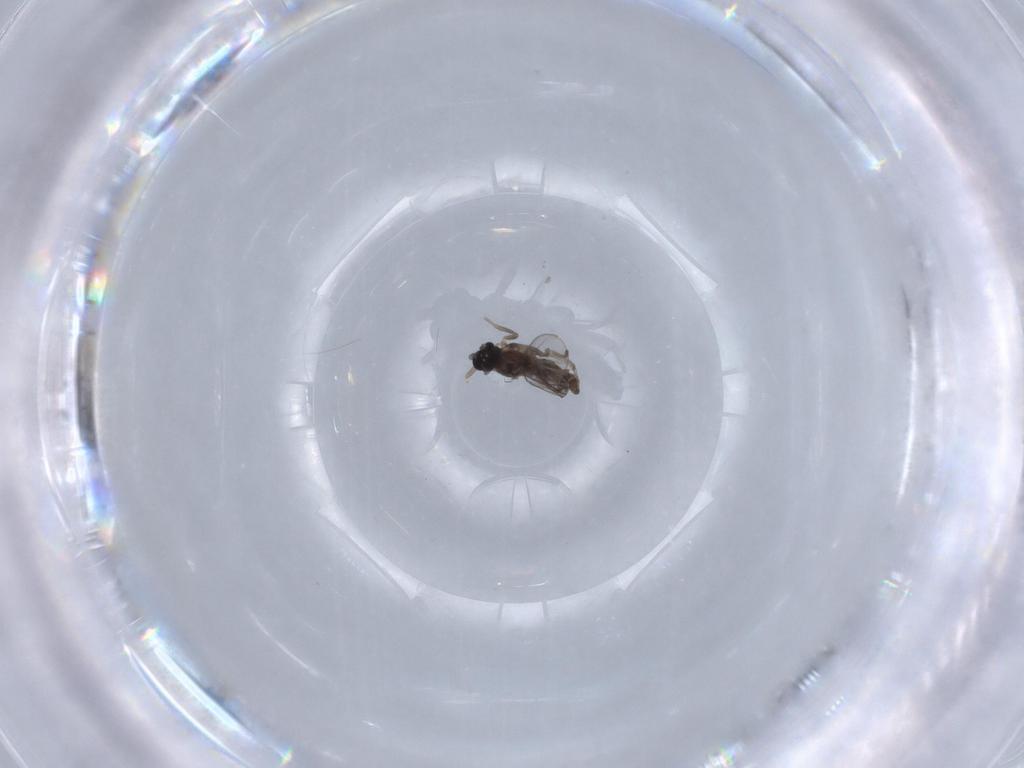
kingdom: Animalia
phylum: Arthropoda
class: Insecta
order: Diptera
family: Cecidomyiidae
